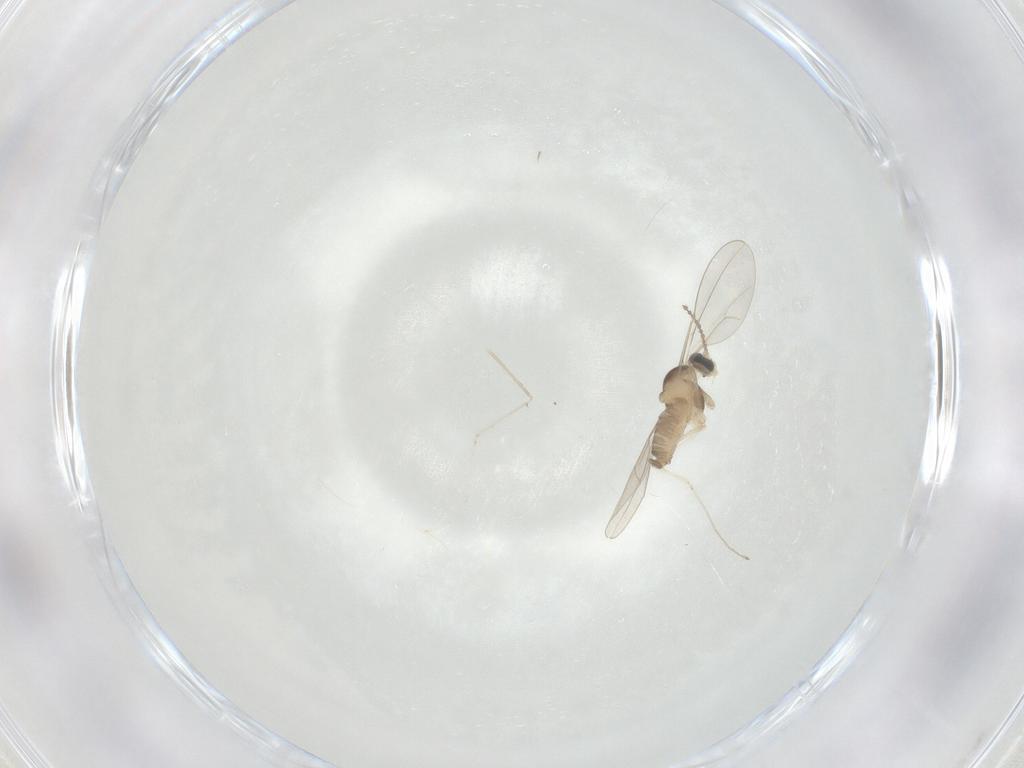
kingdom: Animalia
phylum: Arthropoda
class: Insecta
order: Diptera
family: Cecidomyiidae
